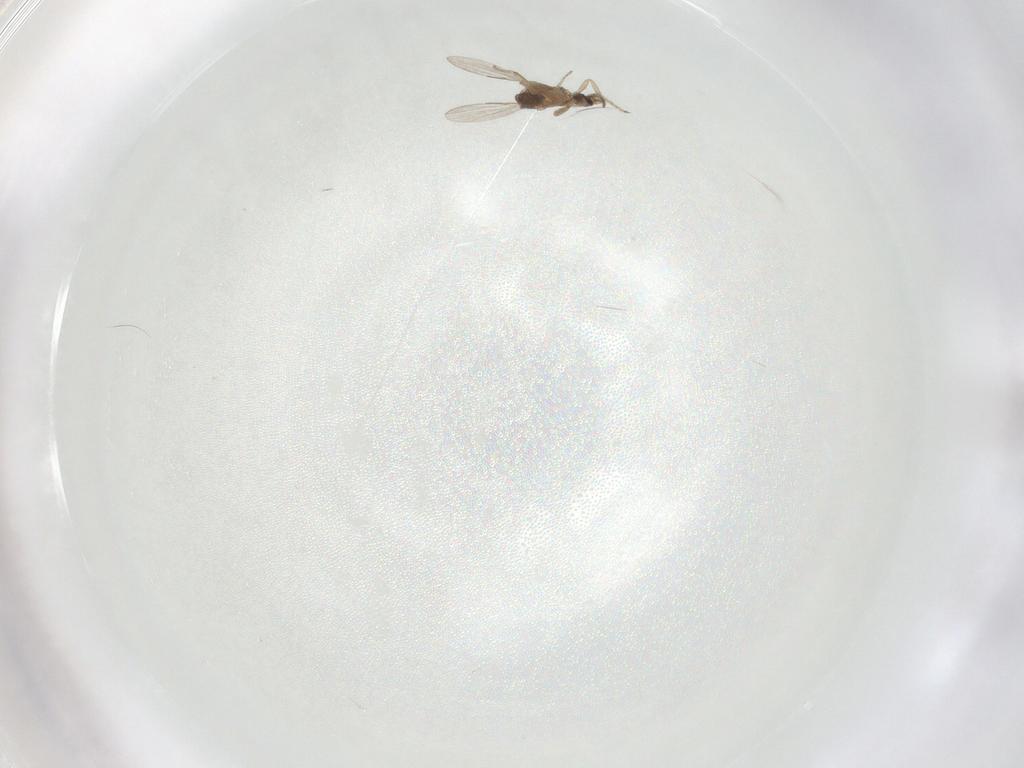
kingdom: Animalia
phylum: Arthropoda
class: Insecta
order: Diptera
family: Ceratopogonidae
